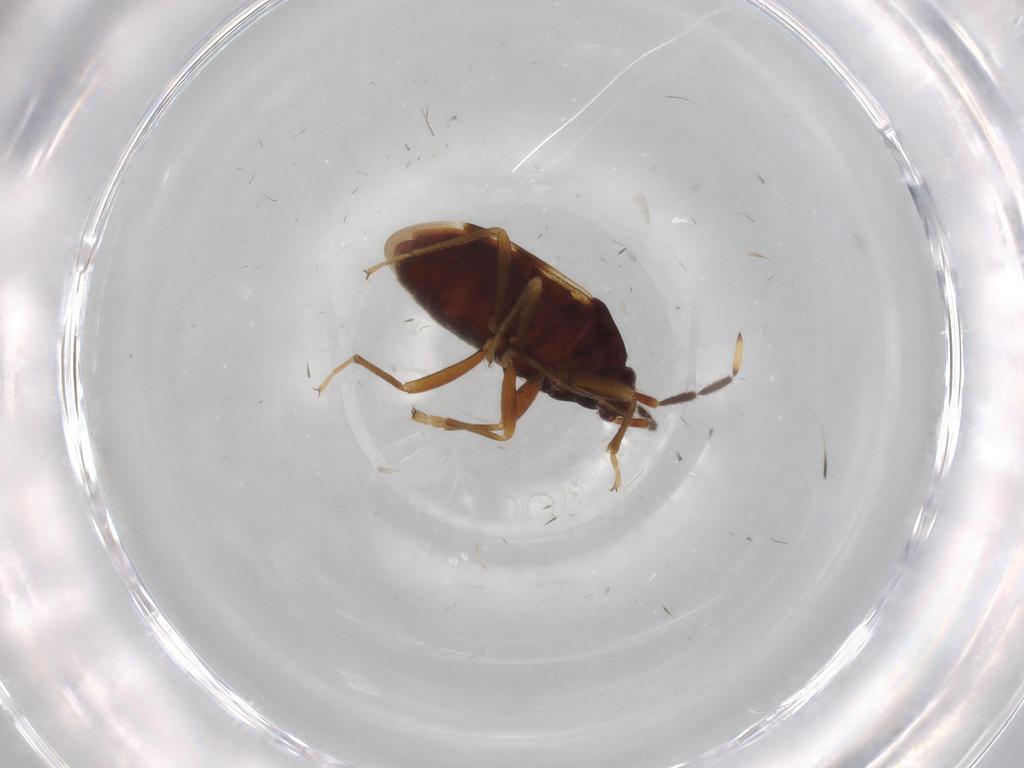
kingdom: Animalia
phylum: Arthropoda
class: Insecta
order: Hemiptera
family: Rhyparochromidae
